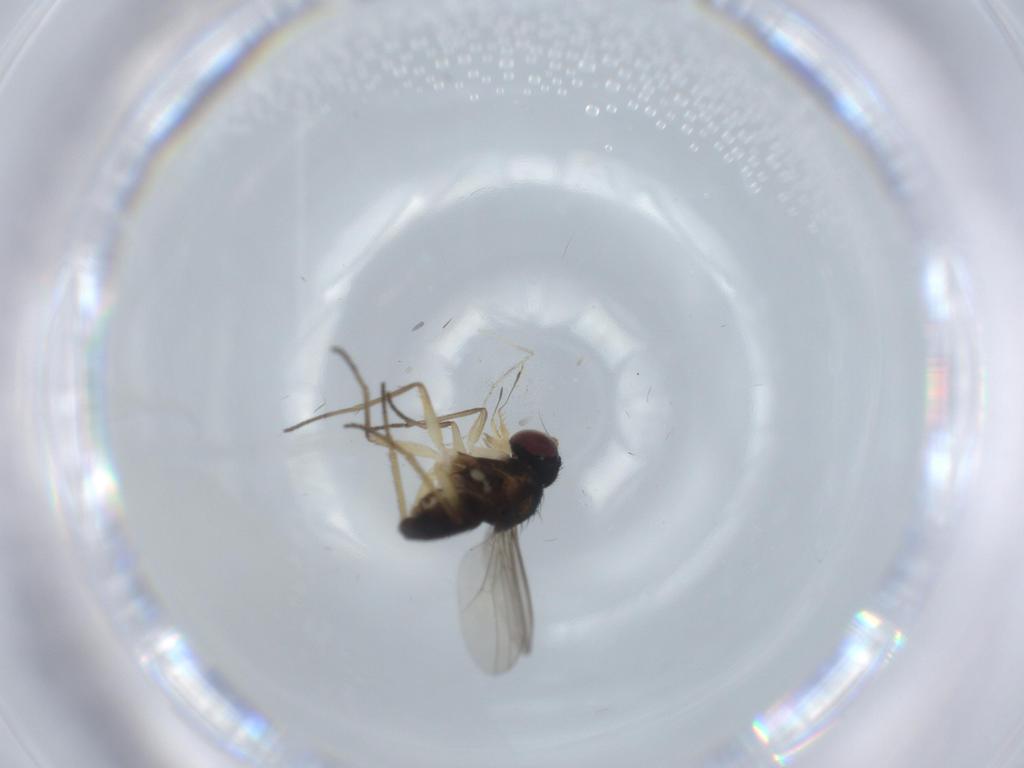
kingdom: Animalia
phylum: Arthropoda
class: Insecta
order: Diptera
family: Dolichopodidae
